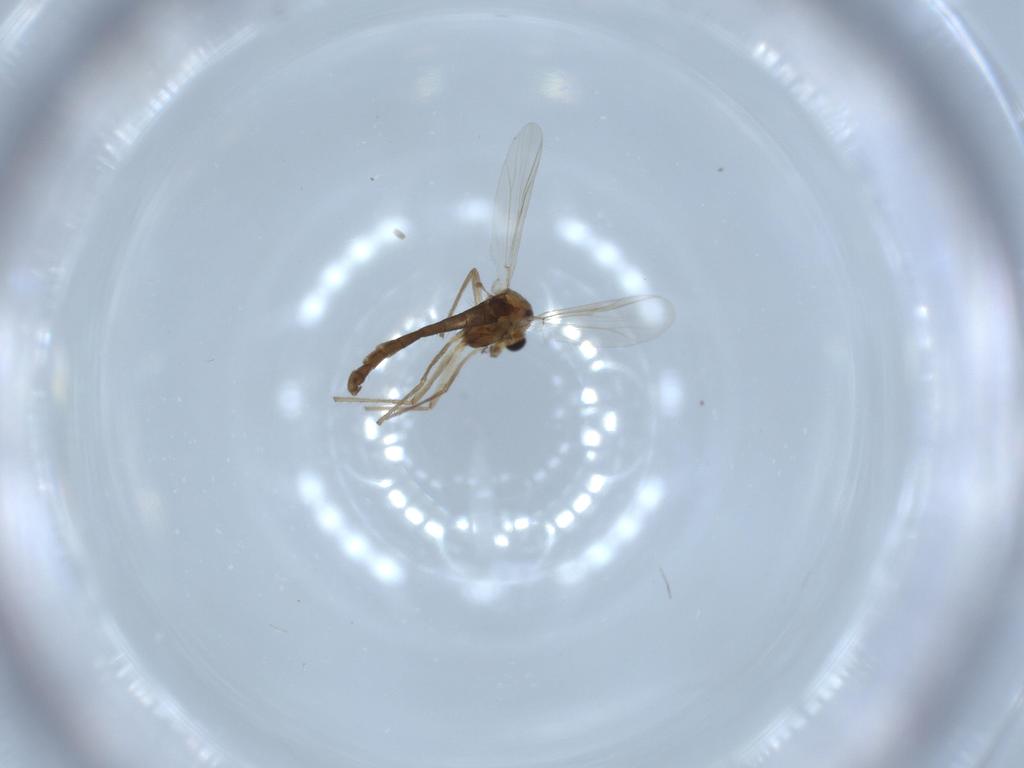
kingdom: Animalia
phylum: Arthropoda
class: Insecta
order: Diptera
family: Chironomidae
